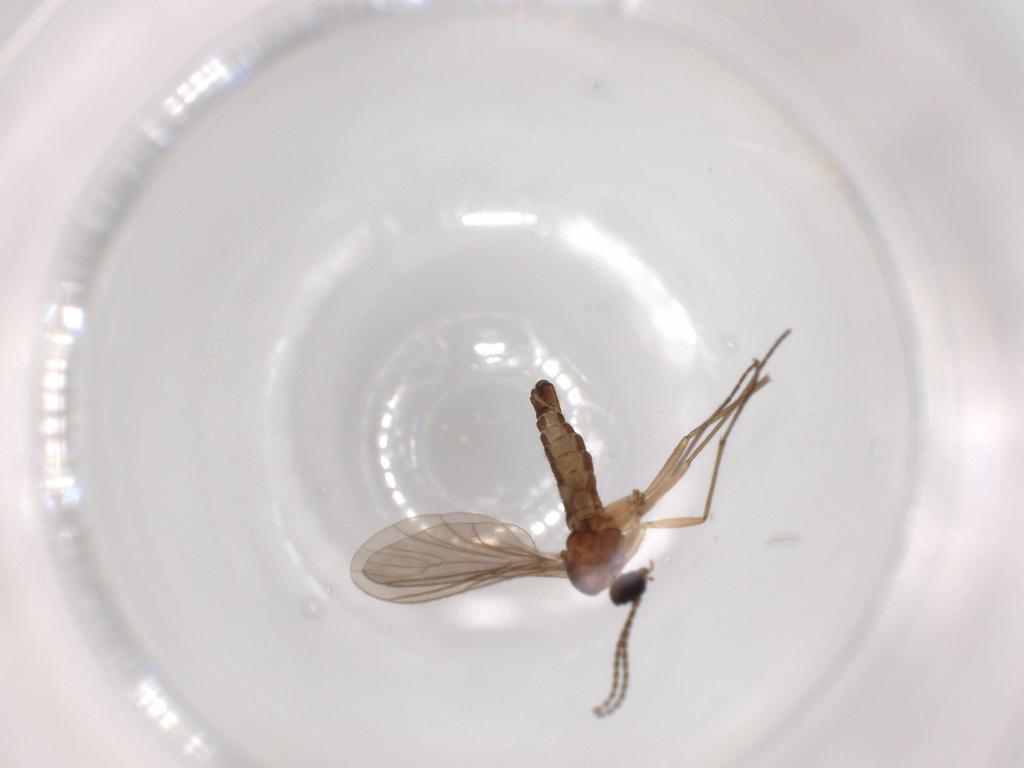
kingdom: Animalia
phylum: Arthropoda
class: Insecta
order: Diptera
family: Sciaridae
